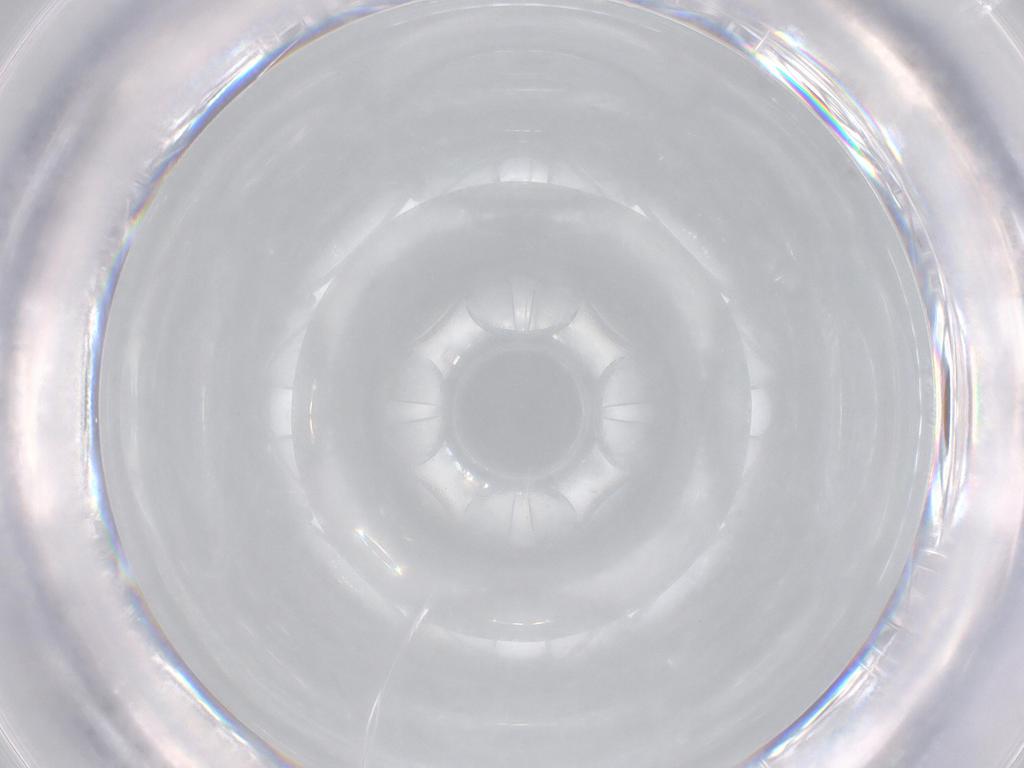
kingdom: Animalia
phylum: Arthropoda
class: Insecta
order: Diptera
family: Chironomidae
